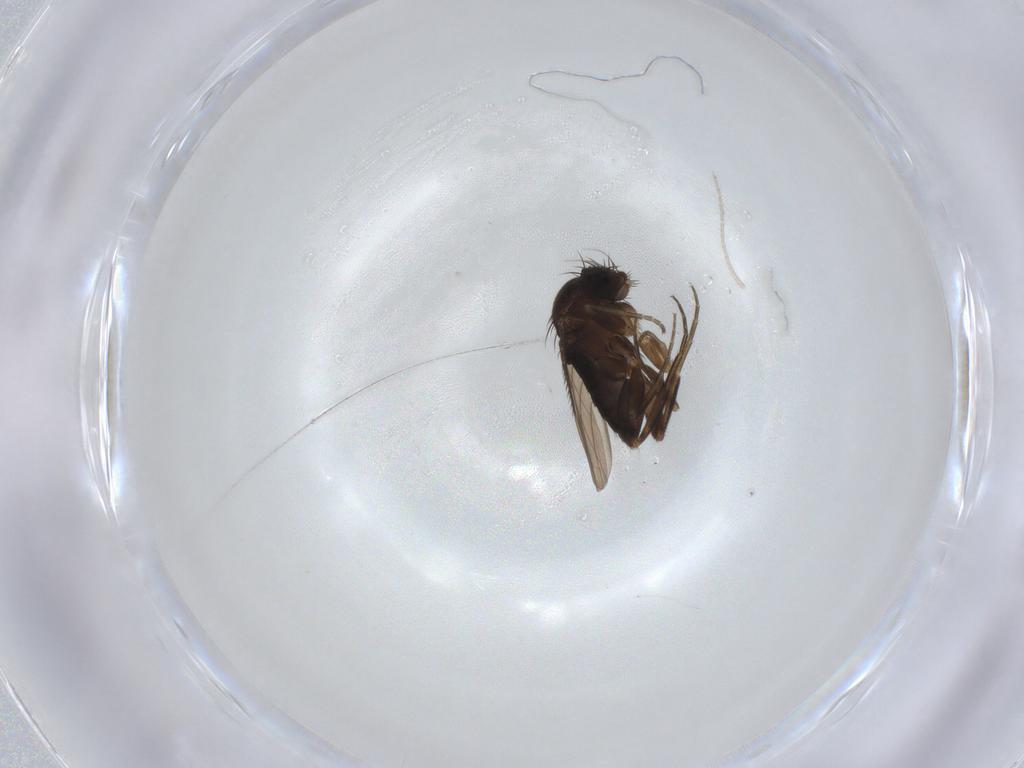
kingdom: Animalia
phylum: Arthropoda
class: Insecta
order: Diptera
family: Phoridae
